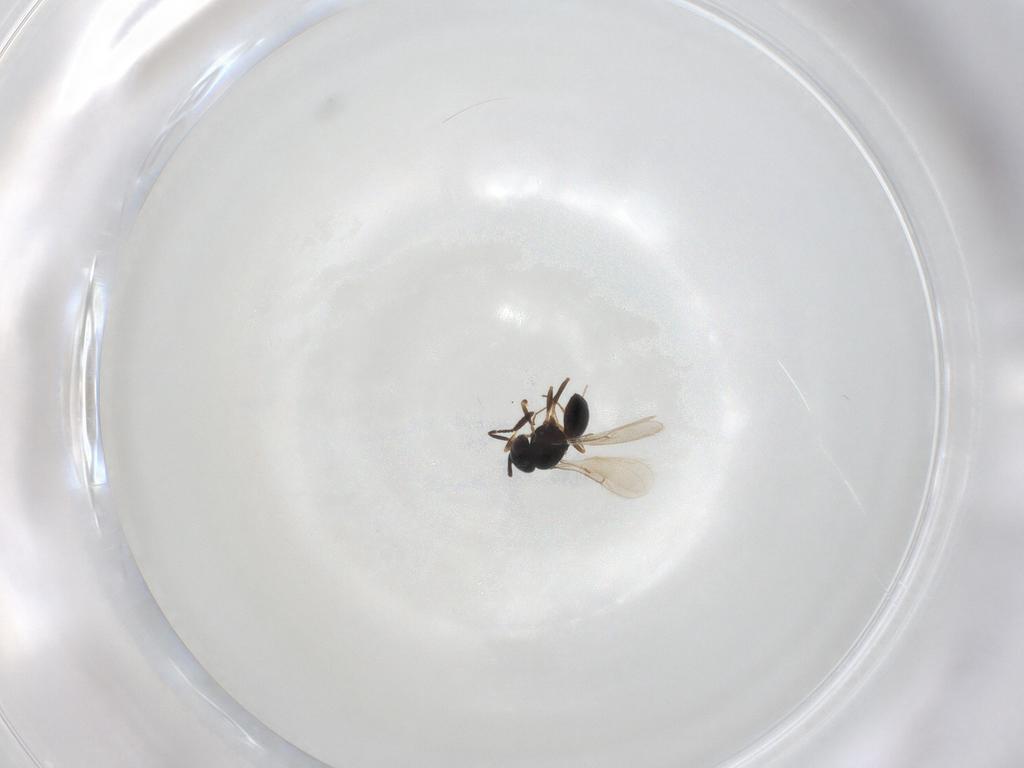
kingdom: Animalia
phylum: Arthropoda
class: Insecta
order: Hymenoptera
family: Scelionidae
